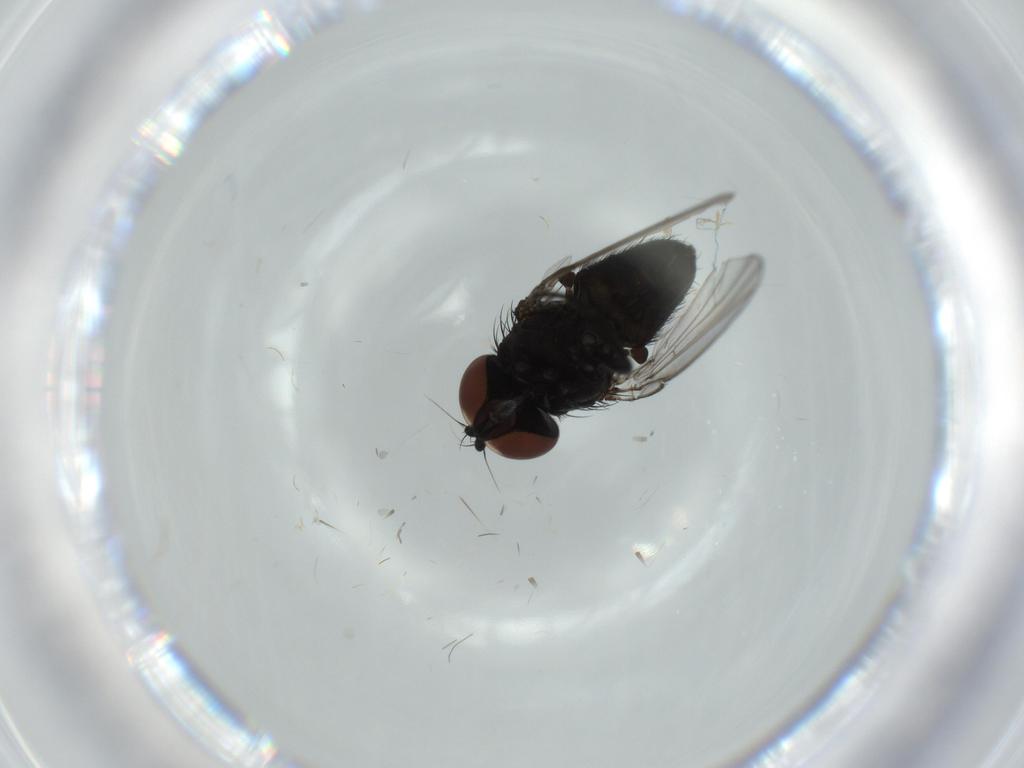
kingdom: Animalia
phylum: Arthropoda
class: Insecta
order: Diptera
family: Milichiidae
